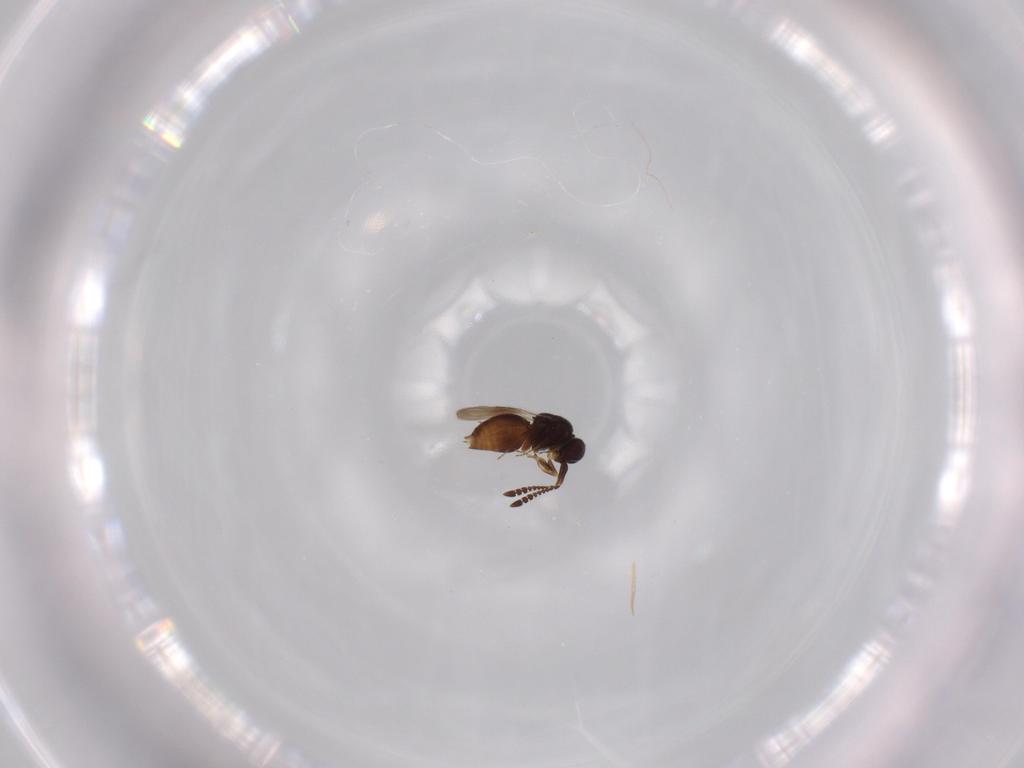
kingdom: Animalia
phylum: Arthropoda
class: Insecta
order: Hymenoptera
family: Ceraphronidae
